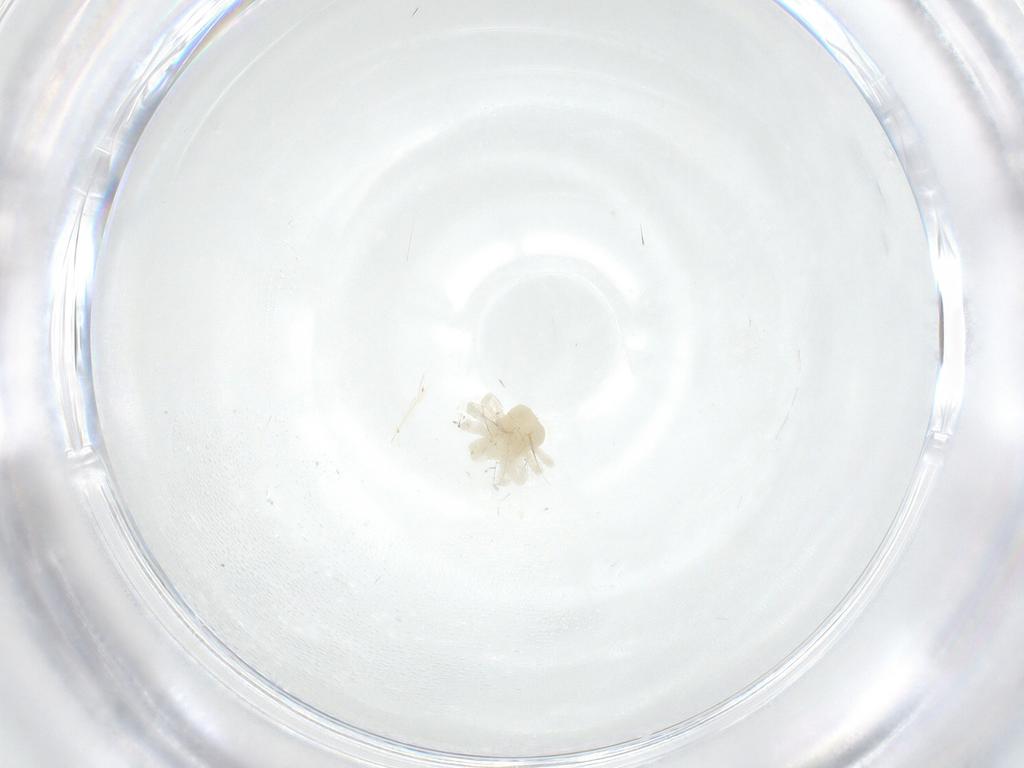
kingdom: Animalia
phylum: Arthropoda
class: Arachnida
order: Trombidiformes
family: Anystidae
